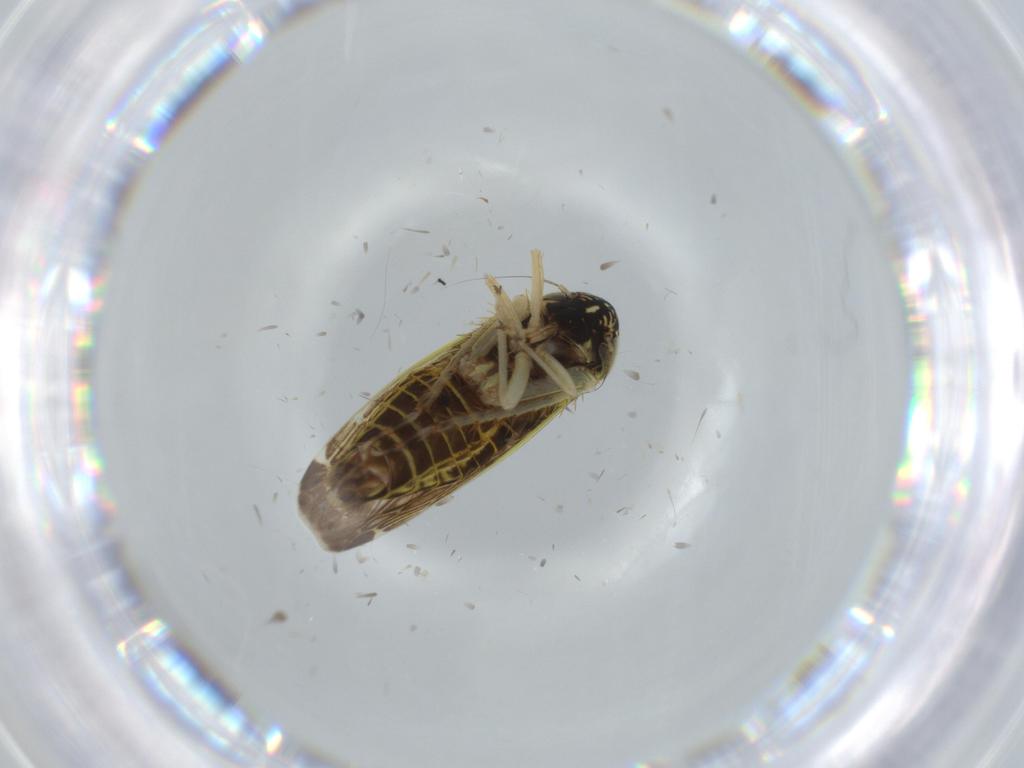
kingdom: Animalia
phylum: Arthropoda
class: Insecta
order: Hemiptera
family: Cicadellidae
